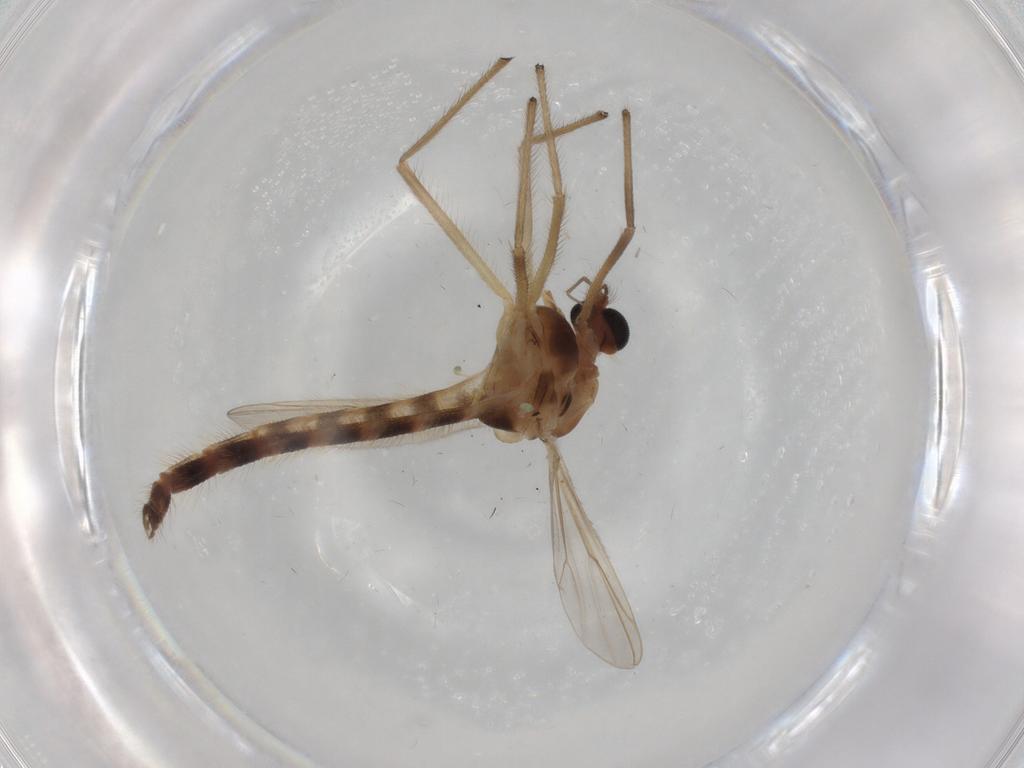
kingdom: Animalia
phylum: Arthropoda
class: Insecta
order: Diptera
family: Chironomidae
